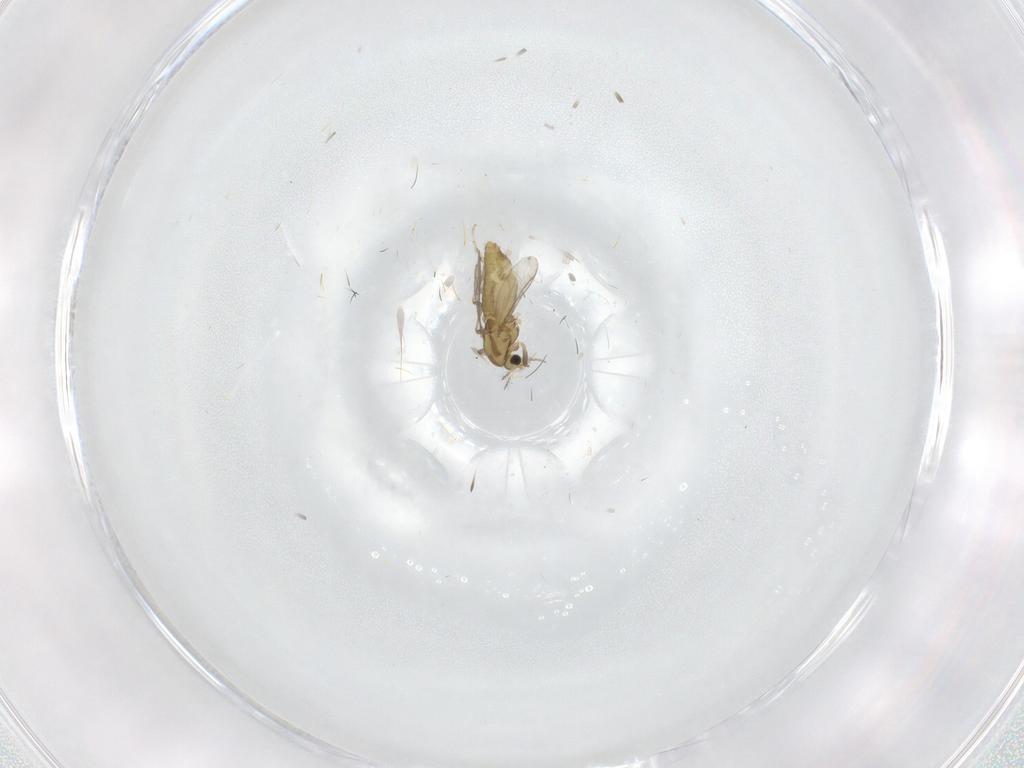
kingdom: Animalia
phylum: Arthropoda
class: Insecta
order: Diptera
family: Chironomidae
